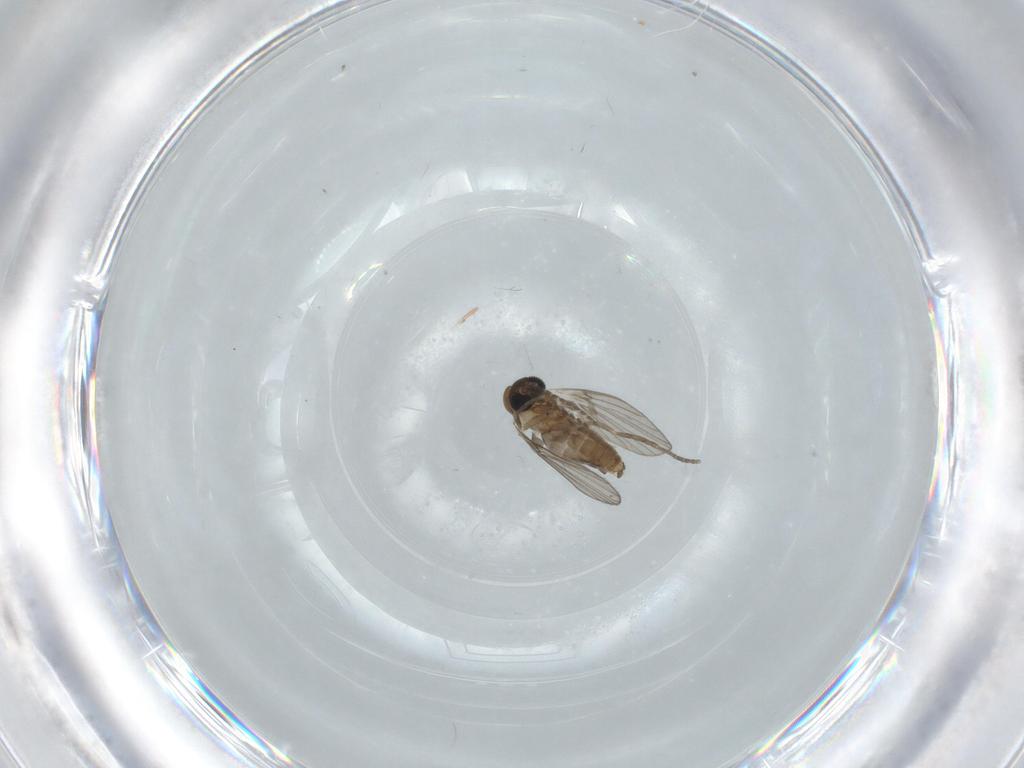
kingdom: Animalia
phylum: Arthropoda
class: Insecta
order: Diptera
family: Psychodidae
